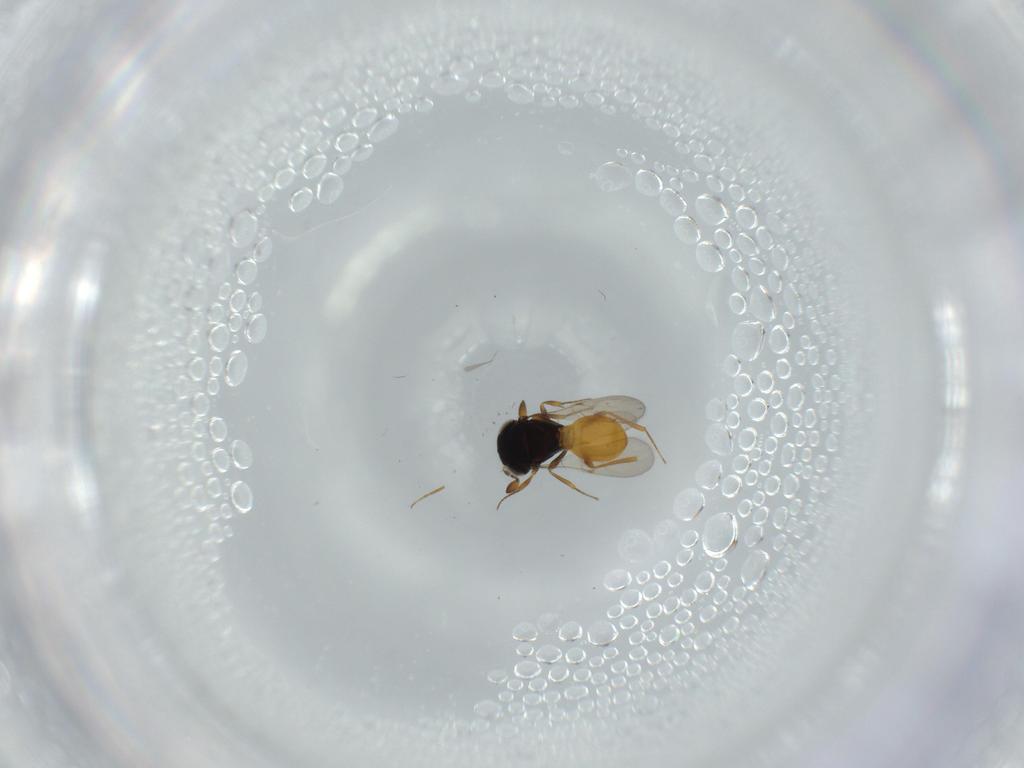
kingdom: Animalia
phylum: Arthropoda
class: Insecta
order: Hymenoptera
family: Scelionidae
